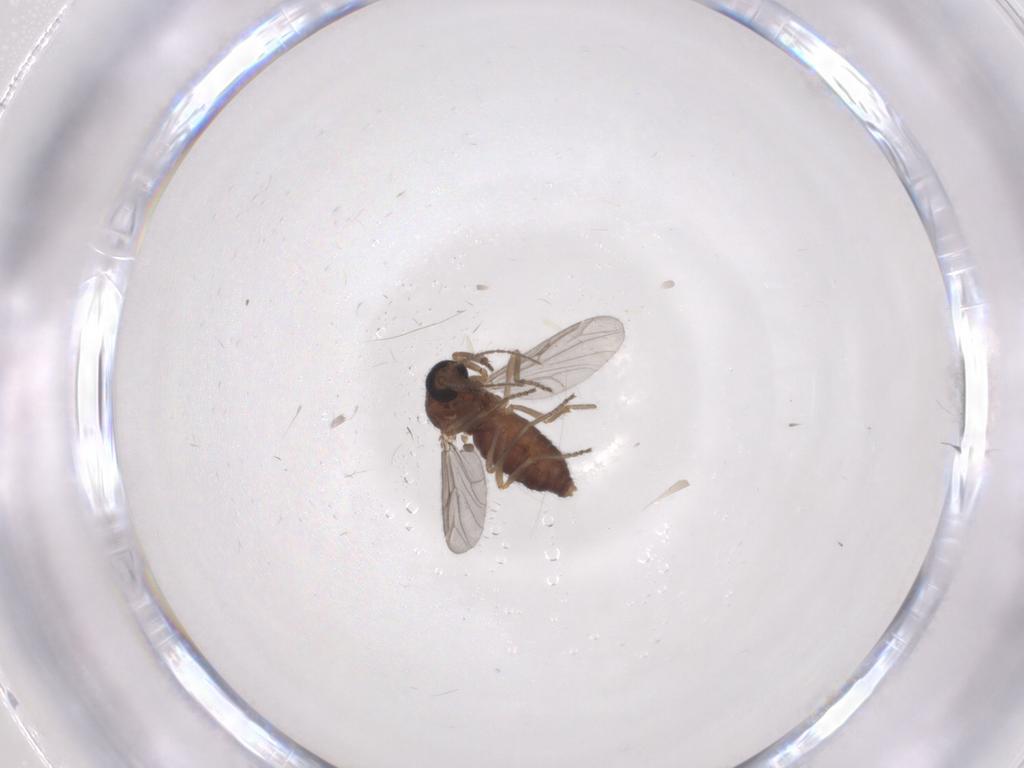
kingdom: Animalia
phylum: Arthropoda
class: Insecta
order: Diptera
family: Ceratopogonidae
